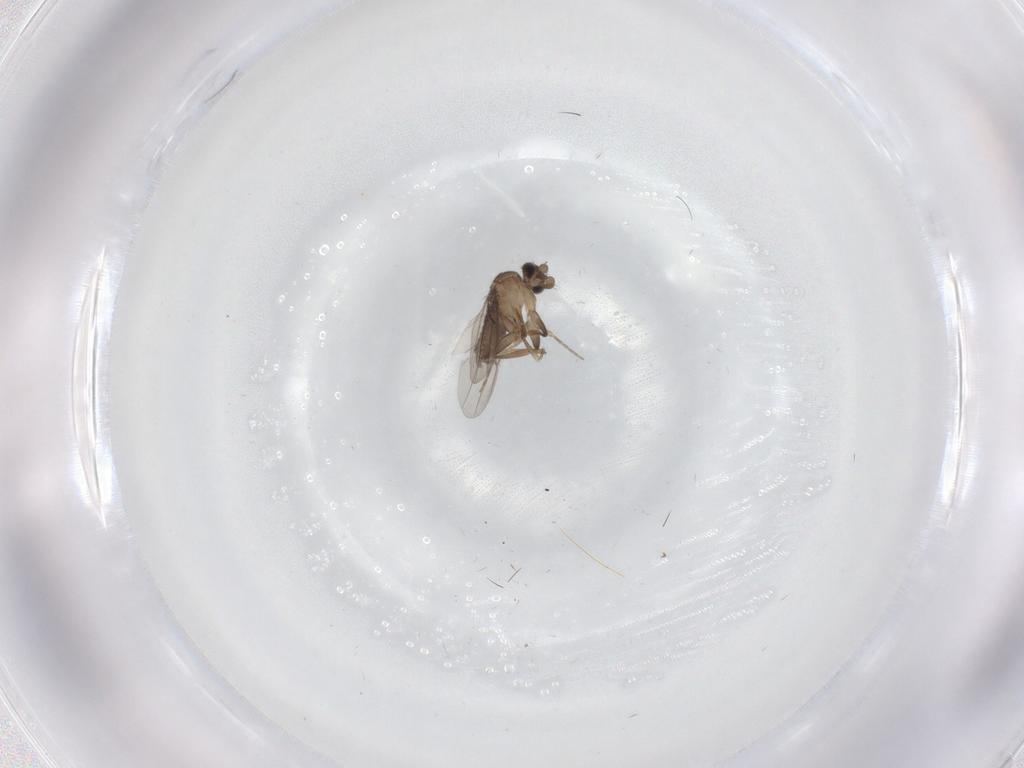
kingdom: Animalia
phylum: Arthropoda
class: Insecta
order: Diptera
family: Phoridae
